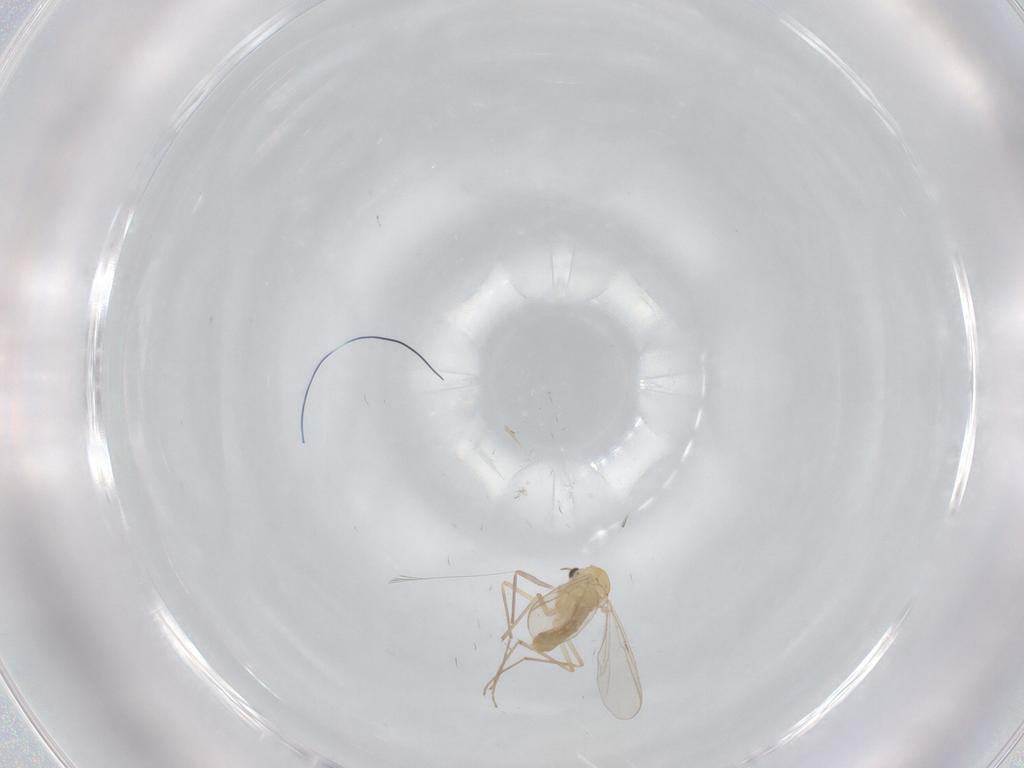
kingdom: Animalia
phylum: Arthropoda
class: Insecta
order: Diptera
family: Chironomidae
